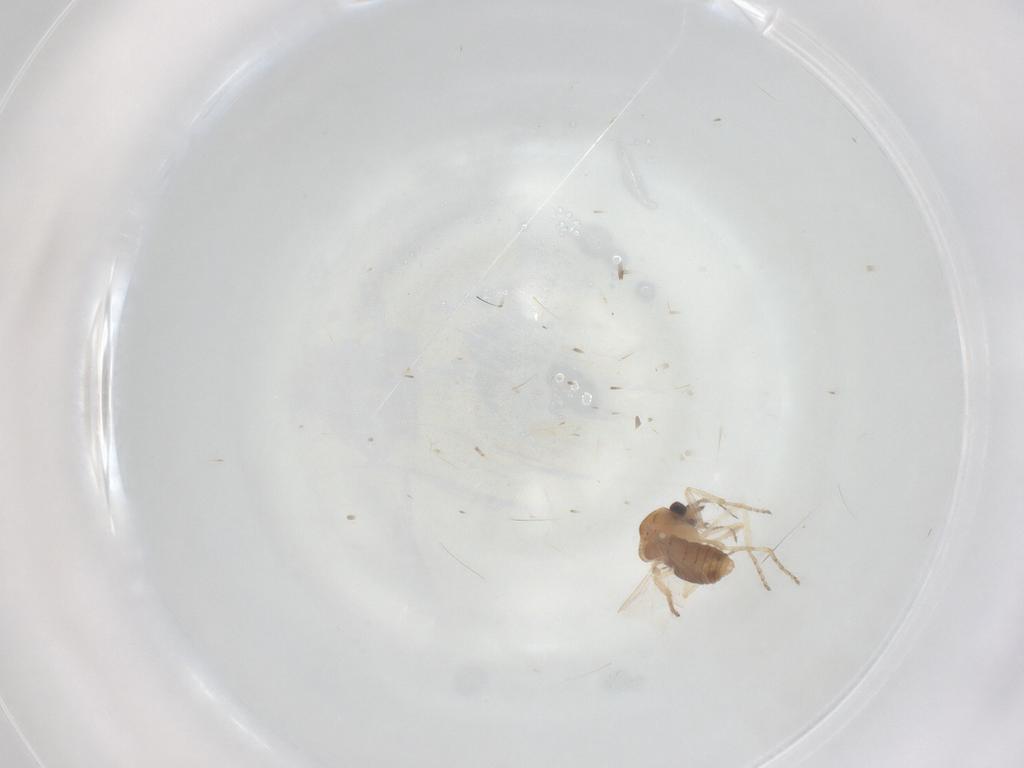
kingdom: Animalia
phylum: Arthropoda
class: Insecta
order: Diptera
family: Ceratopogonidae
